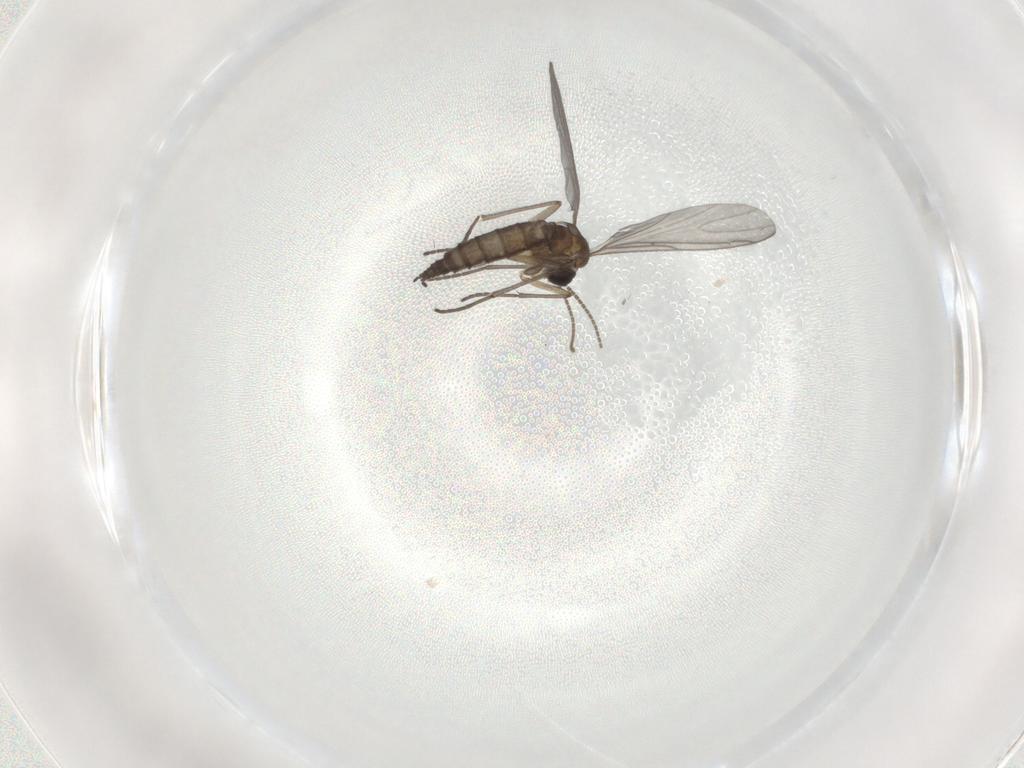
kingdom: Animalia
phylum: Arthropoda
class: Insecta
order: Diptera
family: Sciaridae
